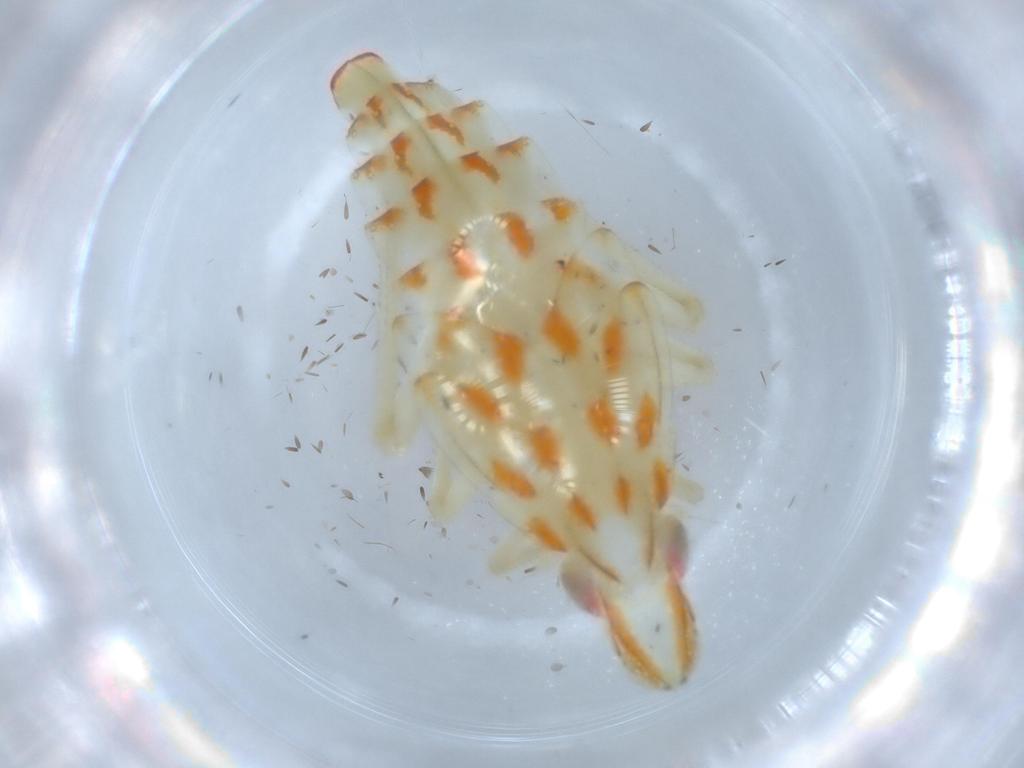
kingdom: Animalia
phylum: Arthropoda
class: Insecta
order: Hemiptera
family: Tropiduchidae
